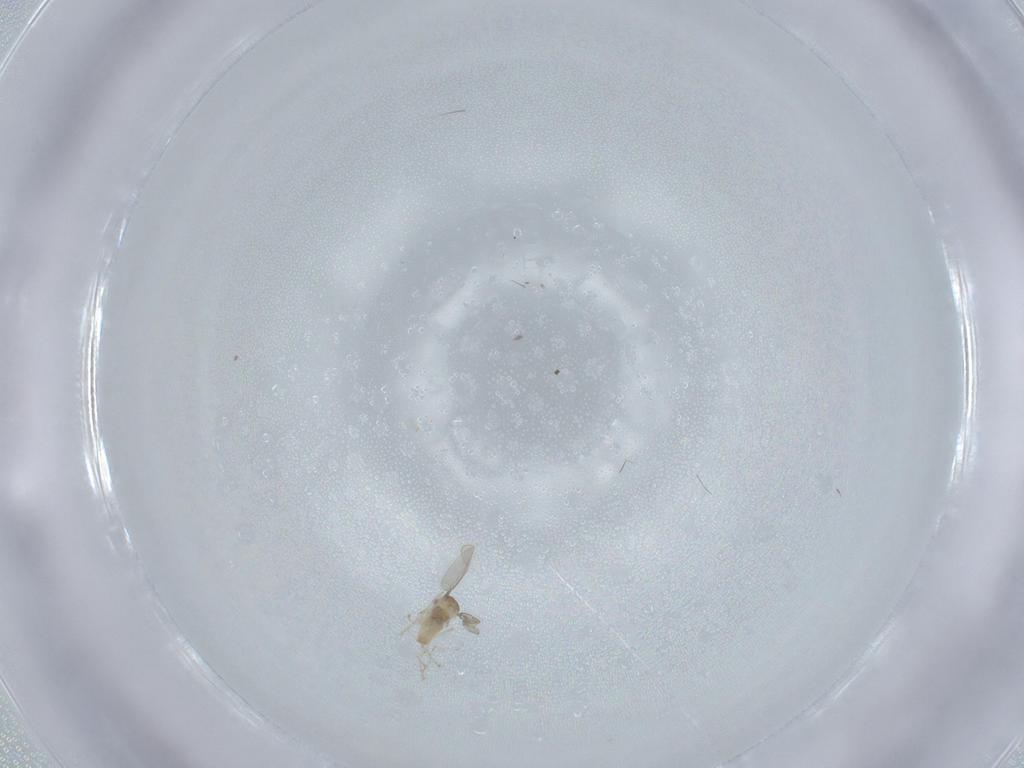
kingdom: Animalia
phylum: Arthropoda
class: Insecta
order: Diptera
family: Cecidomyiidae
